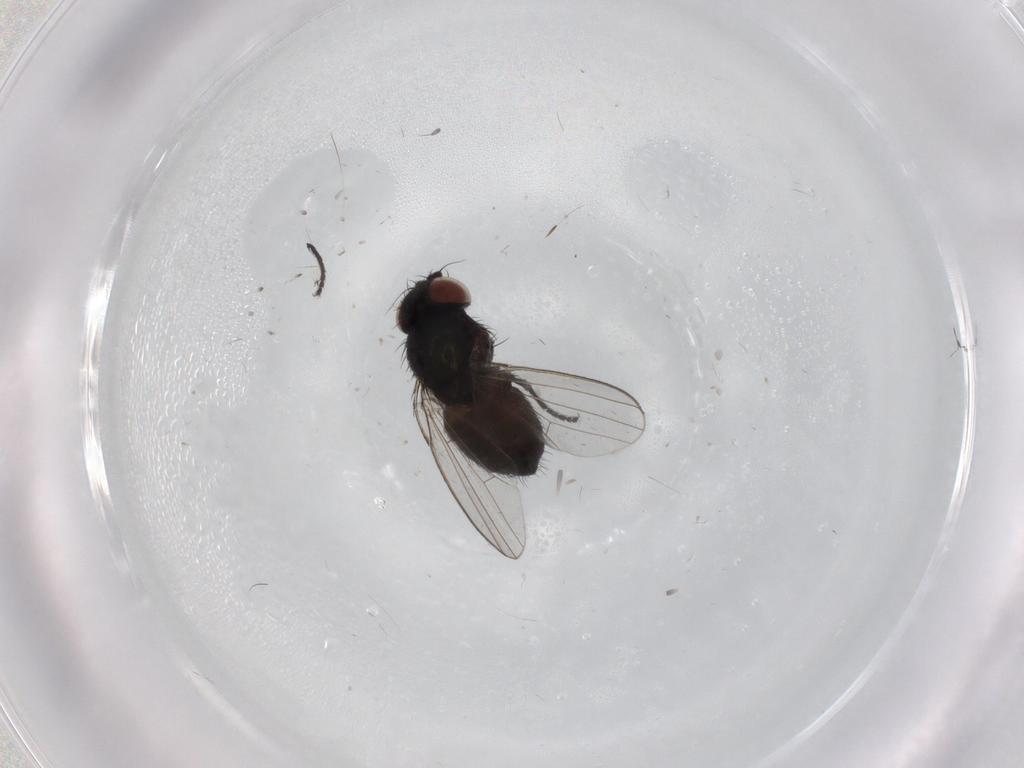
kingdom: Animalia
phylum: Arthropoda
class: Insecta
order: Diptera
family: Milichiidae
